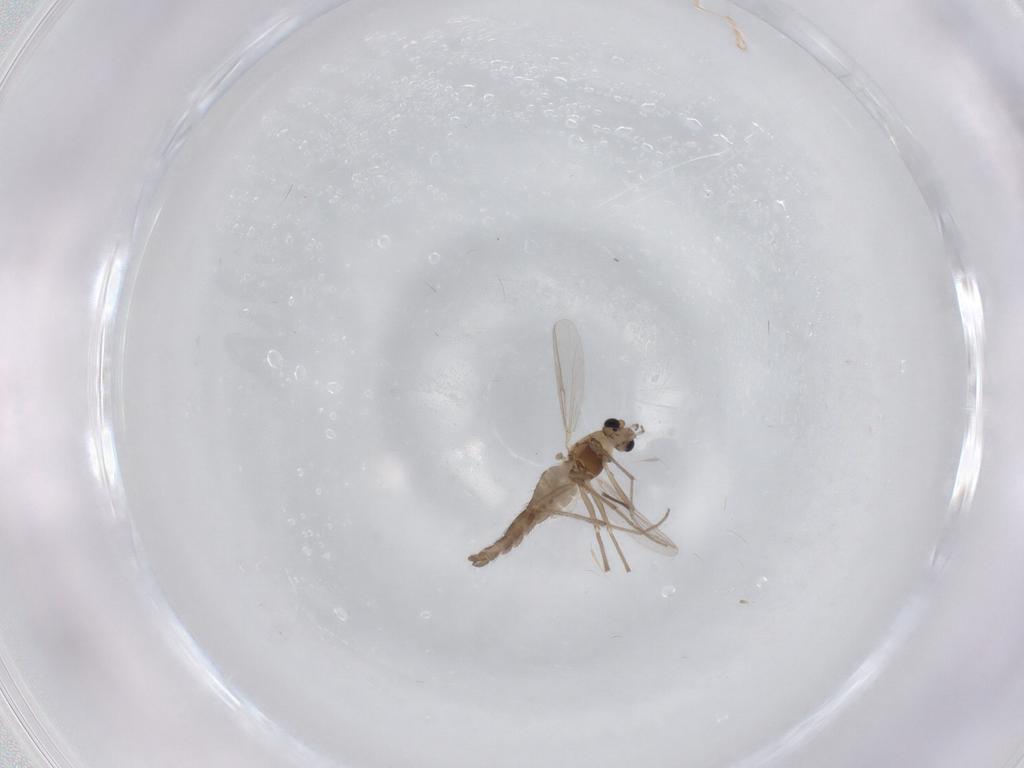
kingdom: Animalia
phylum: Arthropoda
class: Insecta
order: Diptera
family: Chironomidae
